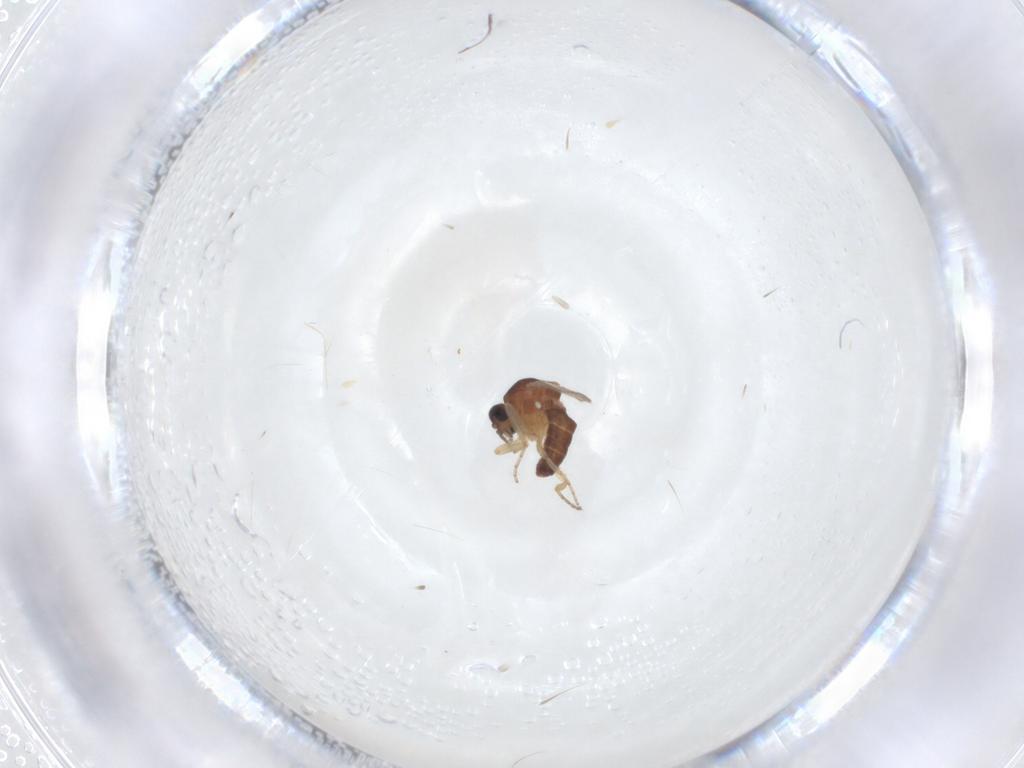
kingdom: Animalia
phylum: Arthropoda
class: Insecta
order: Diptera
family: Ceratopogonidae
